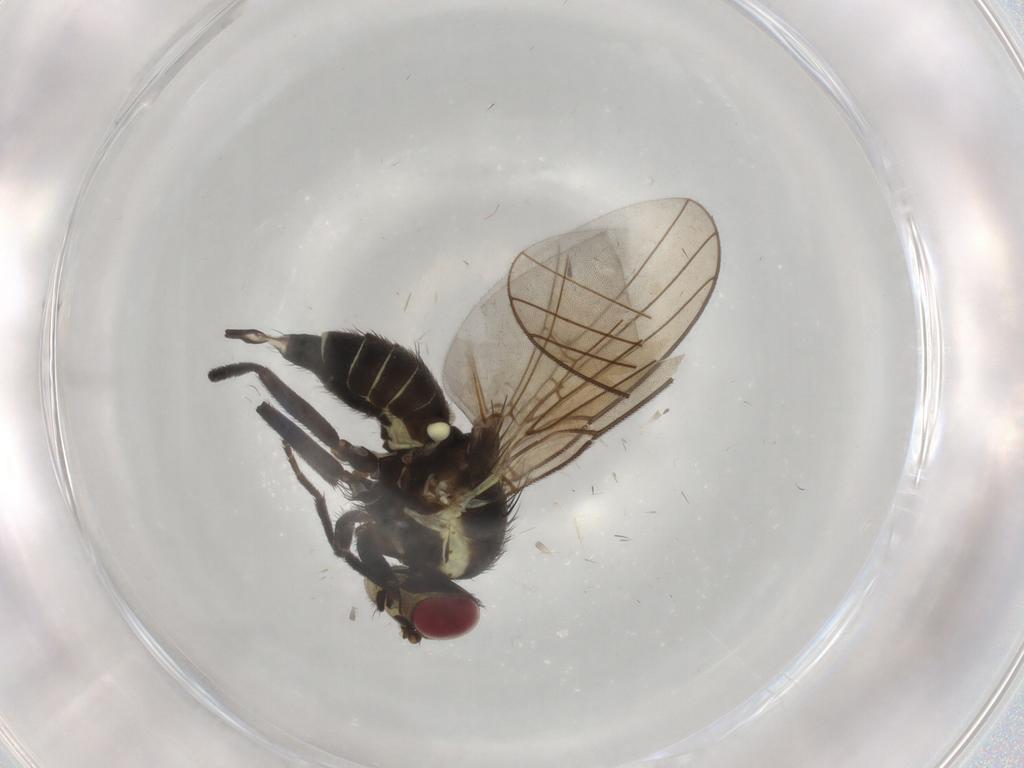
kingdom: Animalia
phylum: Arthropoda
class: Insecta
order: Diptera
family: Agromyzidae
